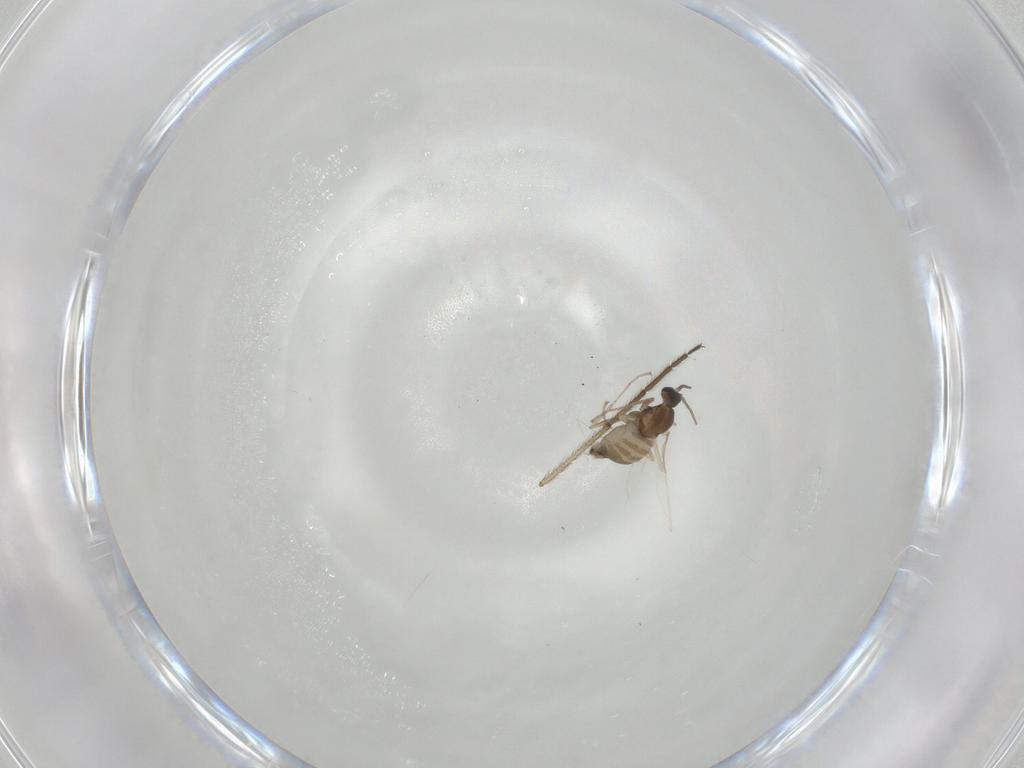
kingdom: Animalia
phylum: Arthropoda
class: Insecta
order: Diptera
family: Cecidomyiidae
